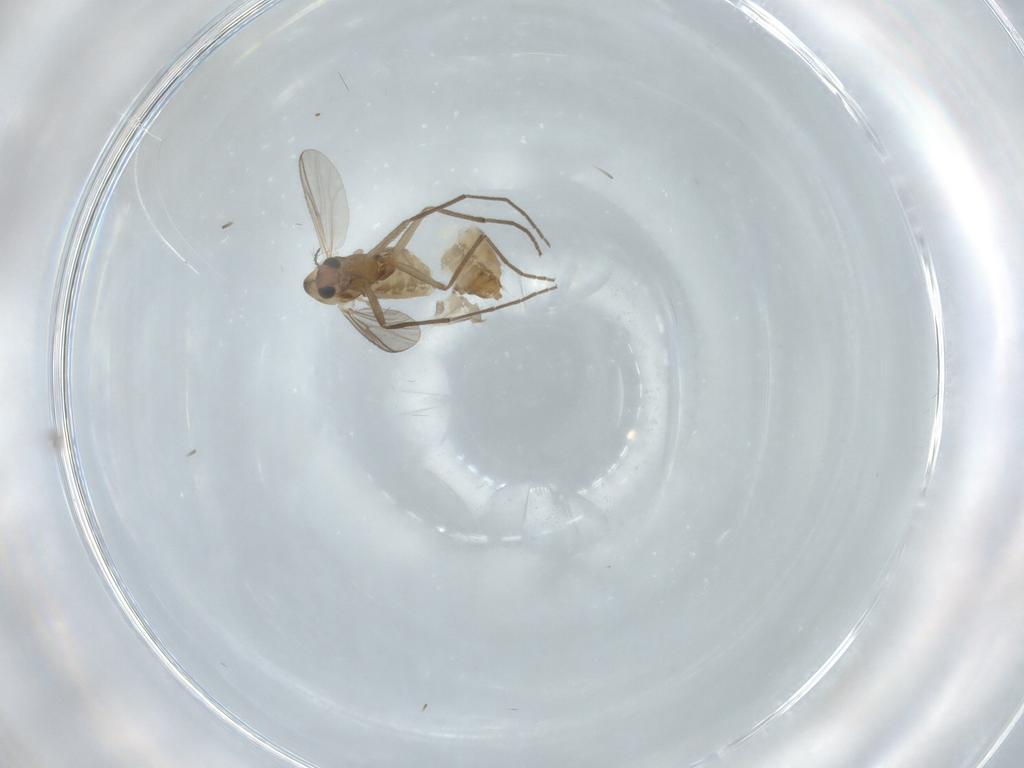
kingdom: Animalia
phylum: Arthropoda
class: Insecta
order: Diptera
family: Chironomidae
